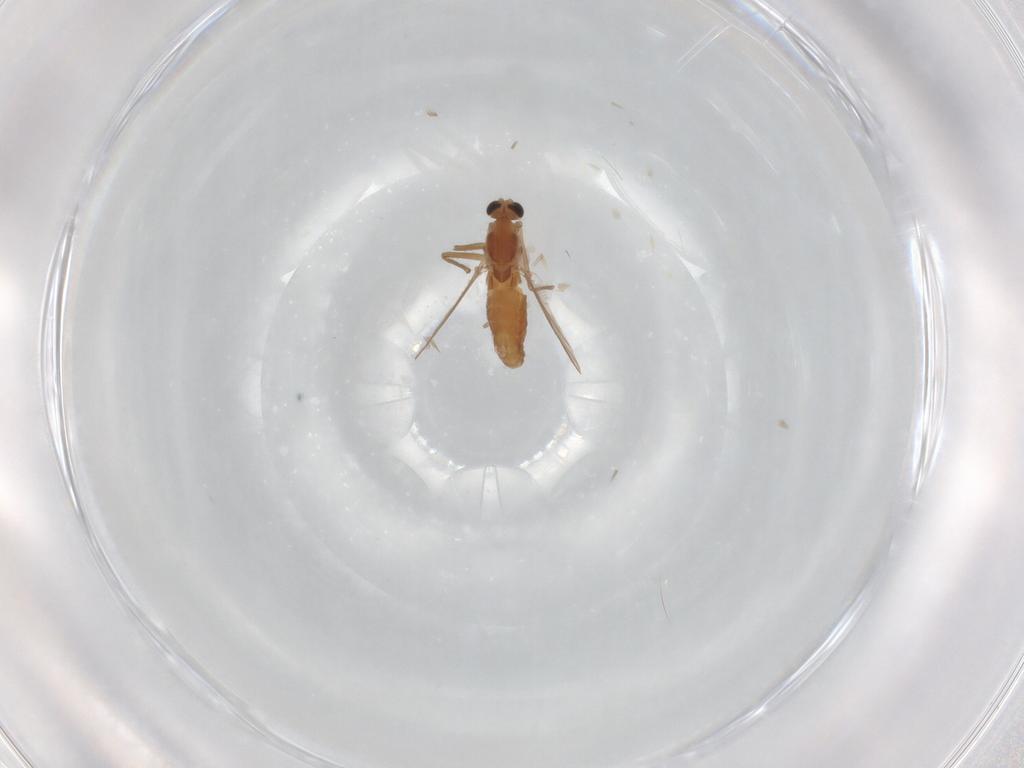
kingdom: Animalia
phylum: Arthropoda
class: Insecta
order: Diptera
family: Chironomidae
